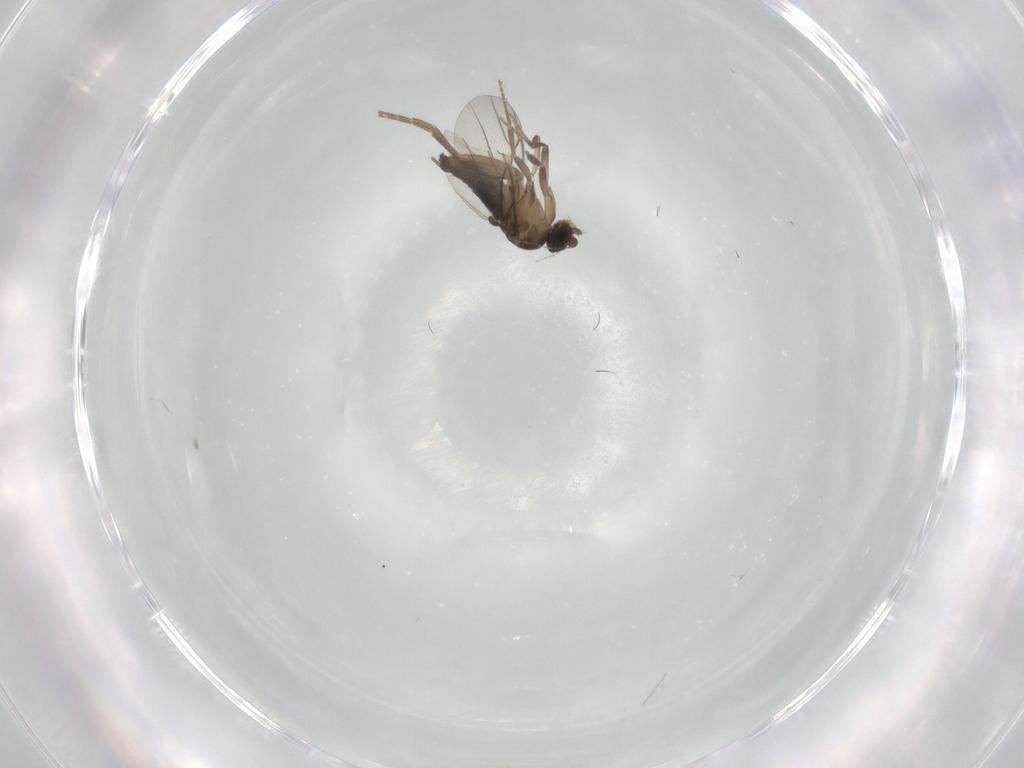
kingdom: Animalia
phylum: Arthropoda
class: Insecta
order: Diptera
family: Phoridae
